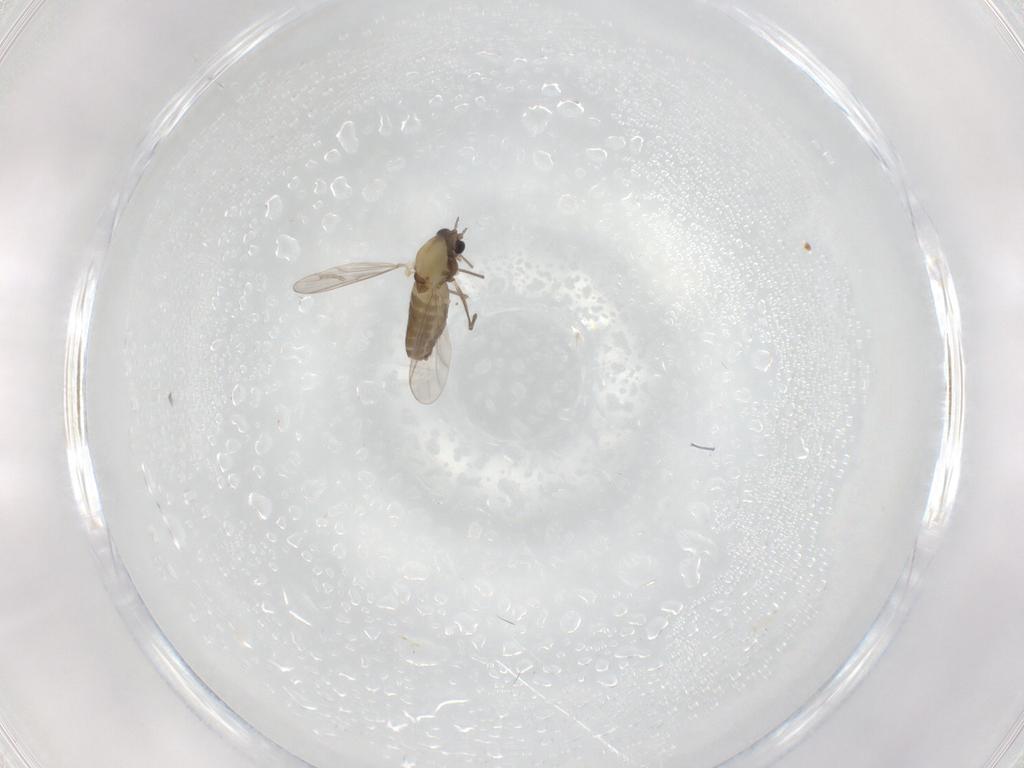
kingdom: Animalia
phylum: Arthropoda
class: Insecta
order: Diptera
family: Chironomidae
